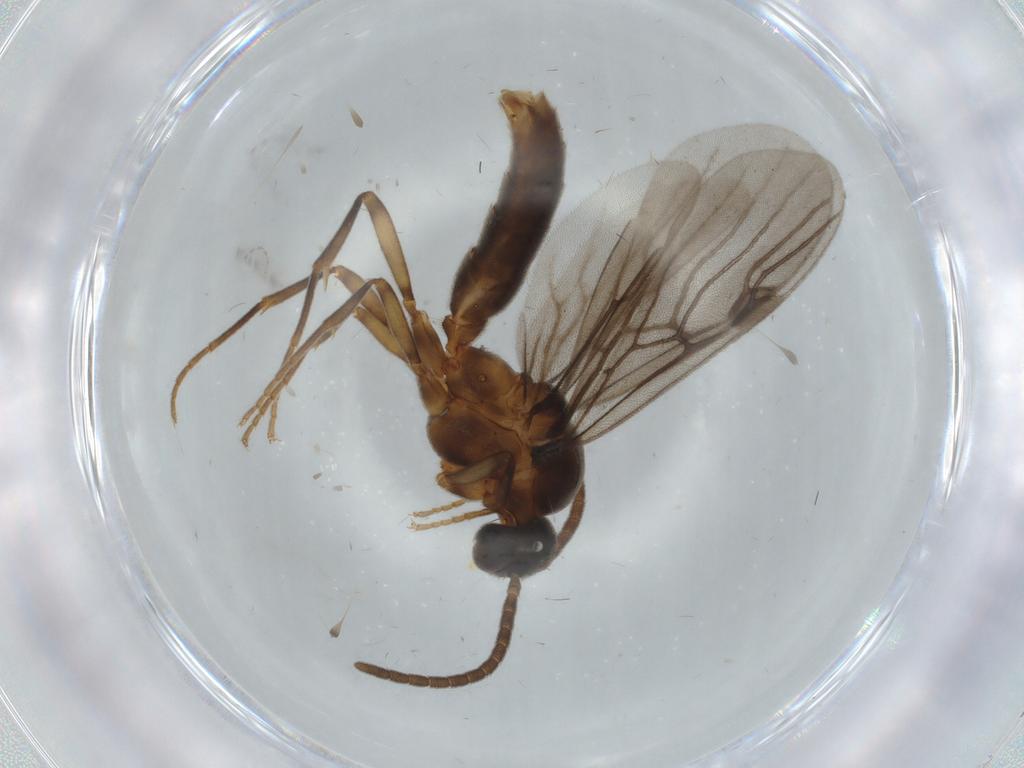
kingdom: Animalia
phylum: Arthropoda
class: Insecta
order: Hymenoptera
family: Formicidae
